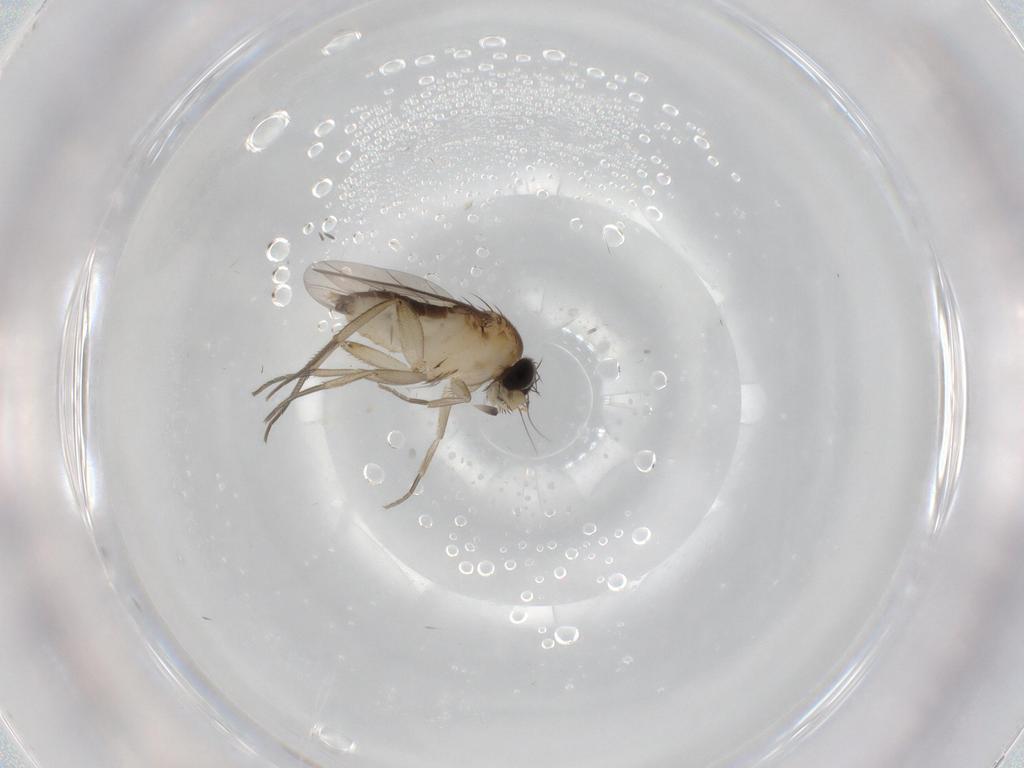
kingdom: Animalia
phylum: Arthropoda
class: Insecta
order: Diptera
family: Phoridae
